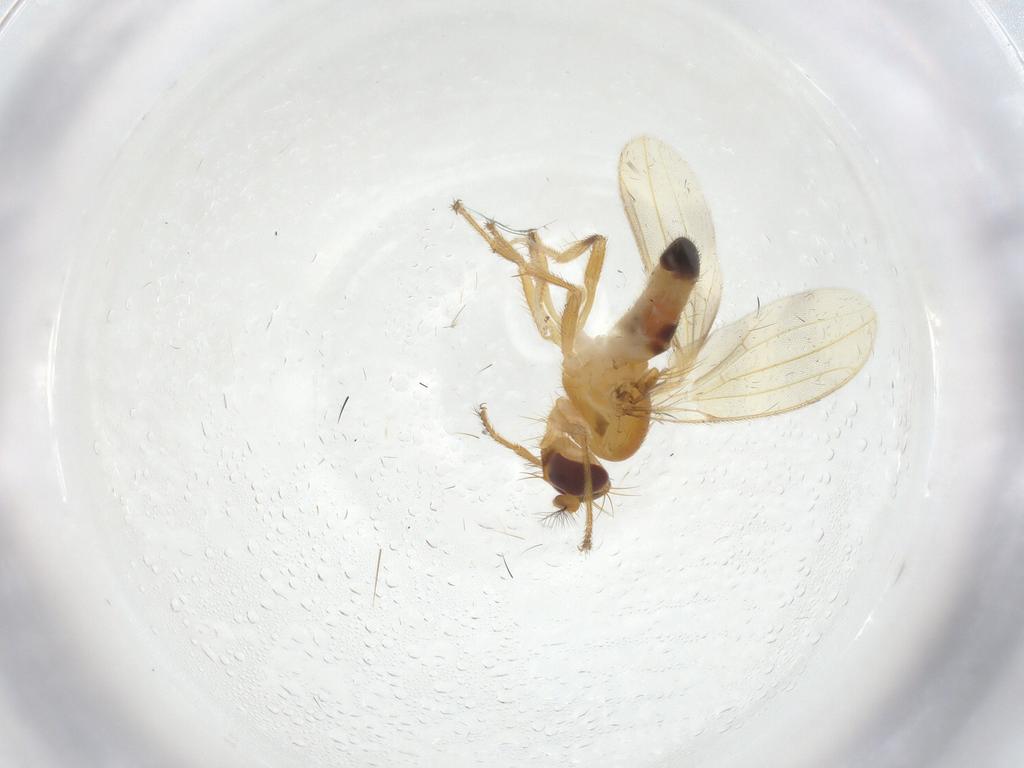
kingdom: Animalia
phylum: Arthropoda
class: Insecta
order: Diptera
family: Periscelididae
